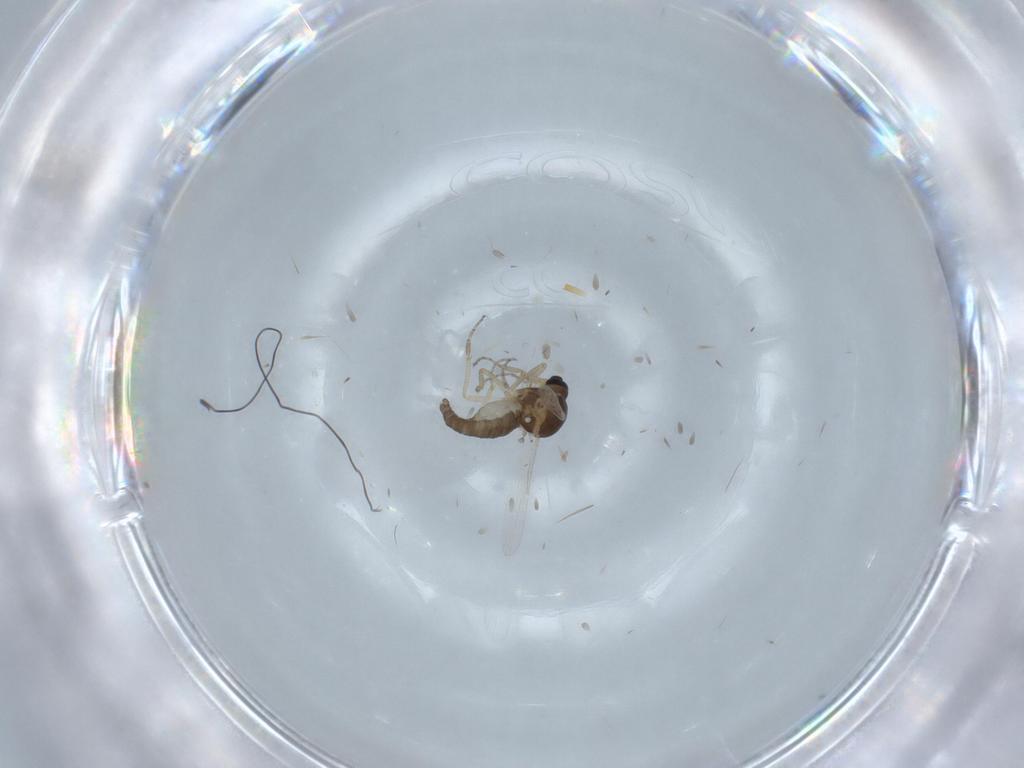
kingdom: Animalia
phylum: Arthropoda
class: Insecta
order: Diptera
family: Ceratopogonidae
